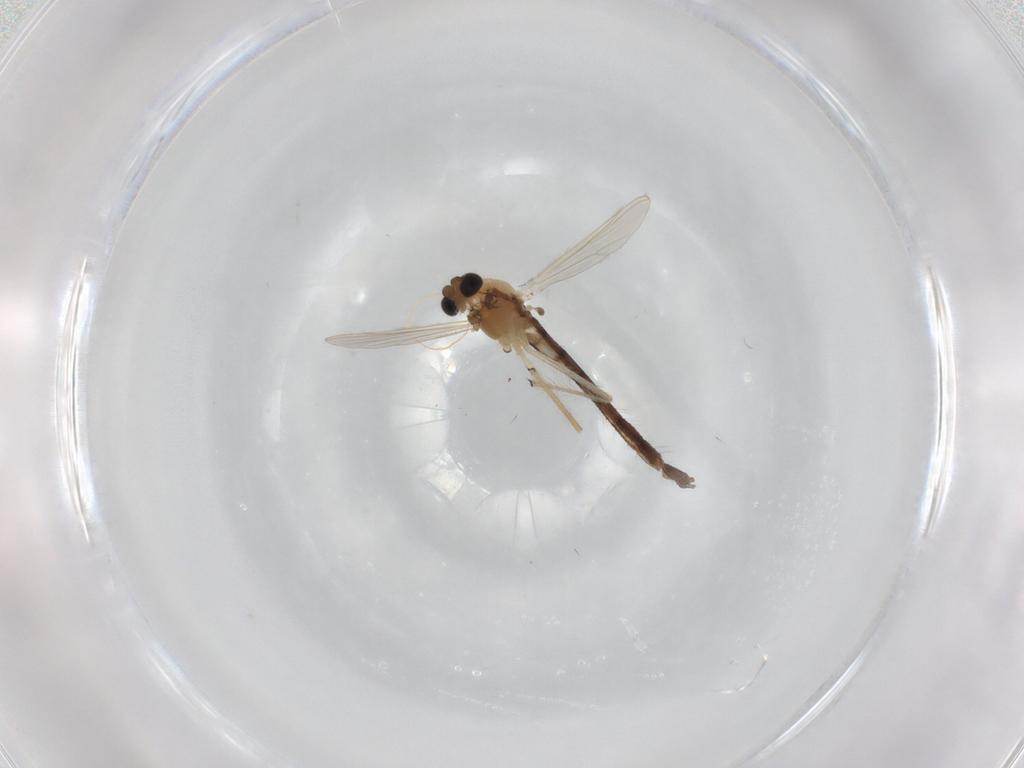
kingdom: Animalia
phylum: Arthropoda
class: Insecta
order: Diptera
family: Chironomidae
